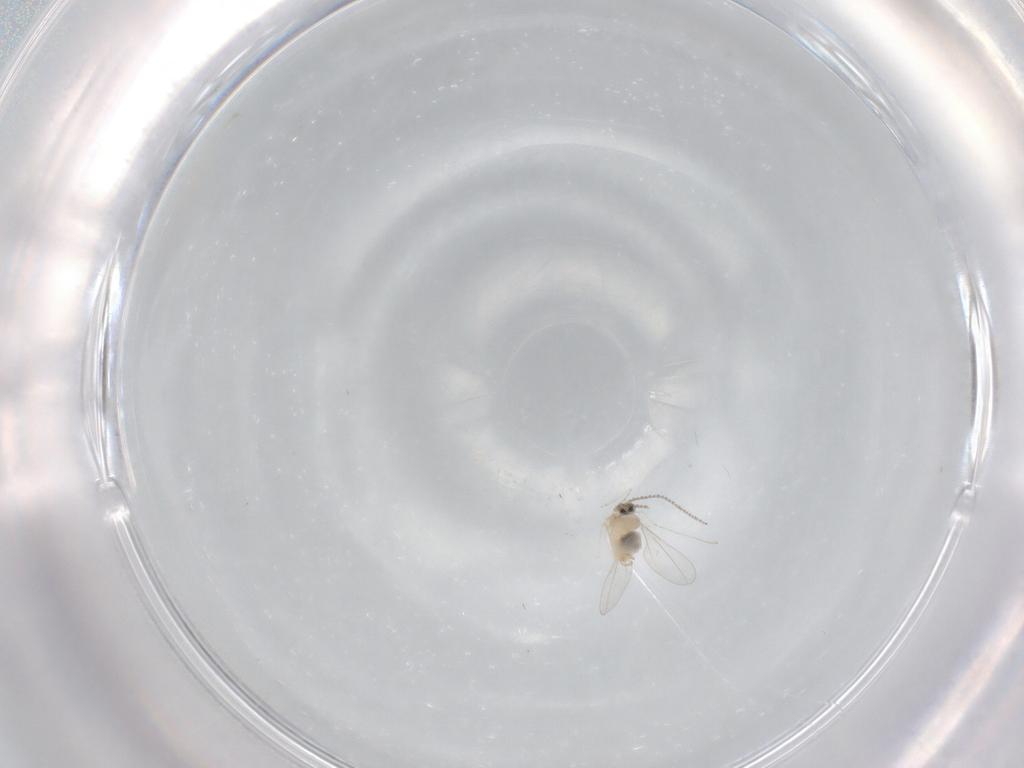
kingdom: Animalia
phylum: Arthropoda
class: Insecta
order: Diptera
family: Cecidomyiidae
